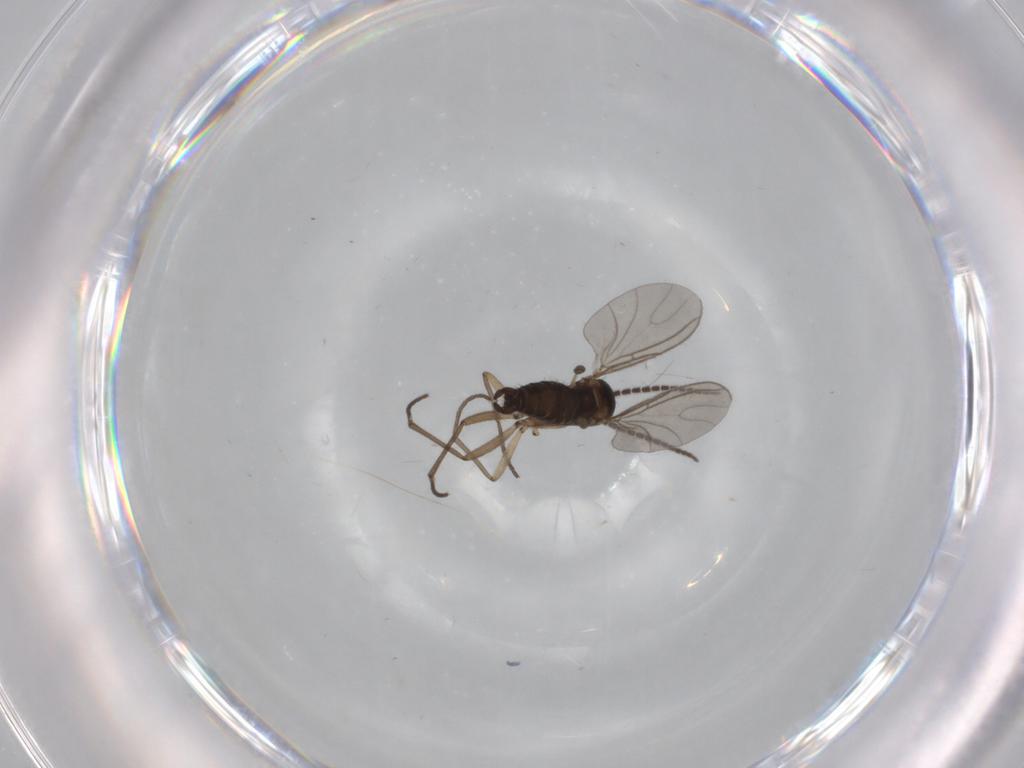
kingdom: Animalia
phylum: Arthropoda
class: Insecta
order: Diptera
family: Sciaridae
